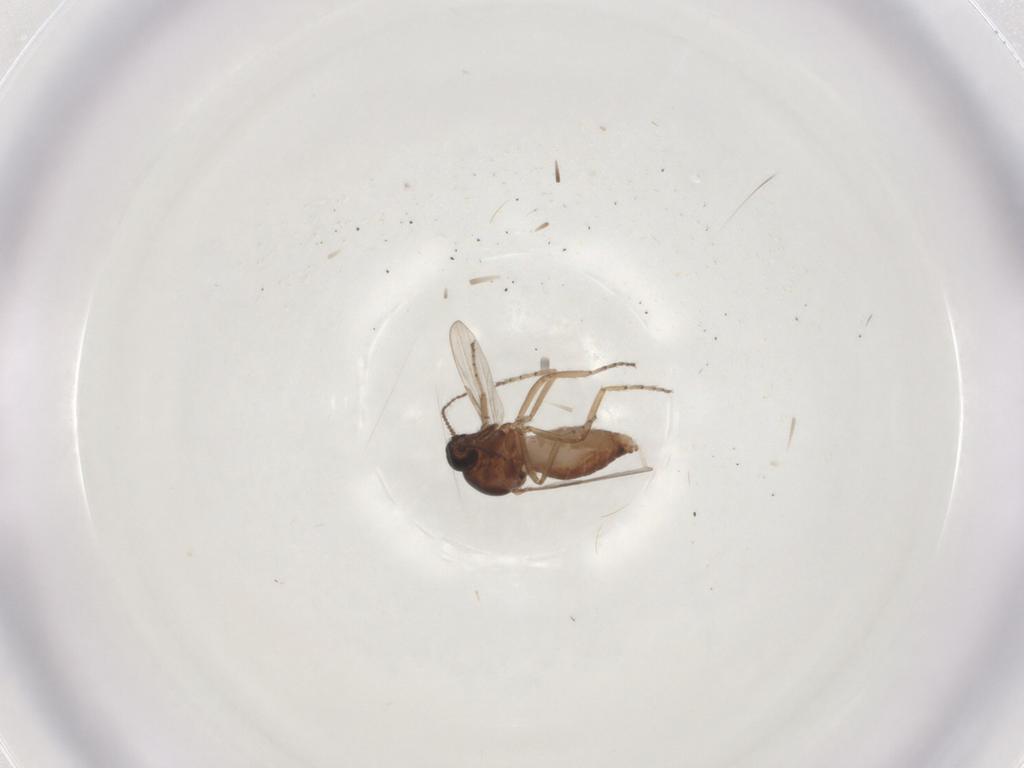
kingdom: Animalia
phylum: Arthropoda
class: Insecta
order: Diptera
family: Ceratopogonidae
